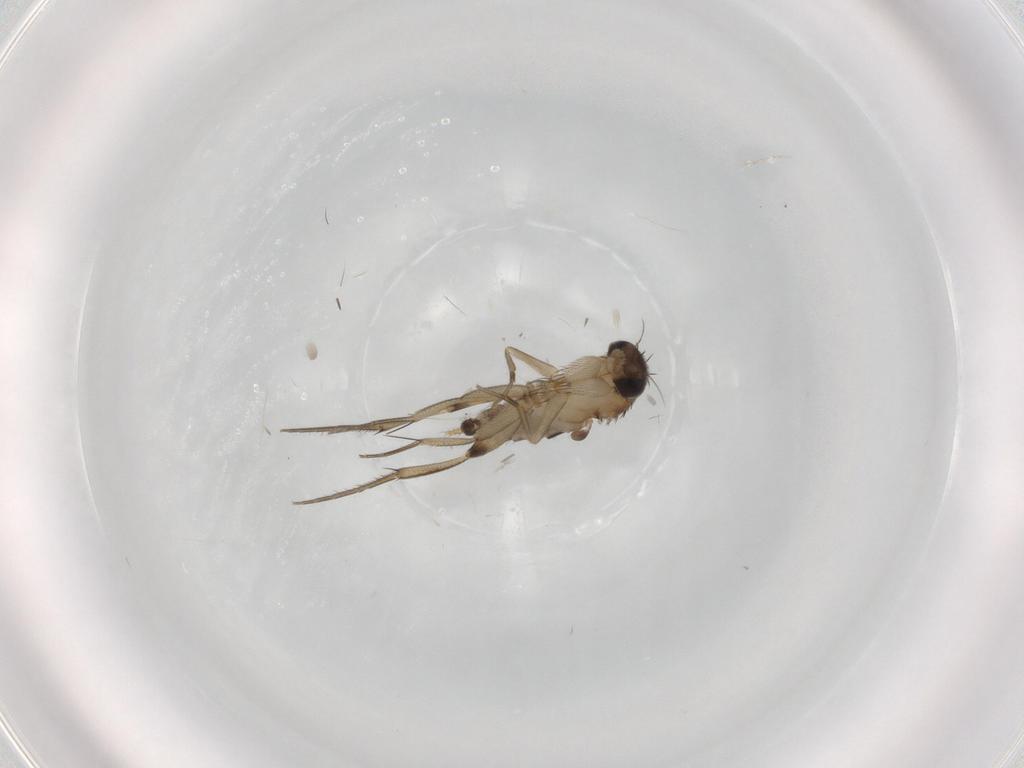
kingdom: Animalia
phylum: Arthropoda
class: Insecta
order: Diptera
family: Phoridae
